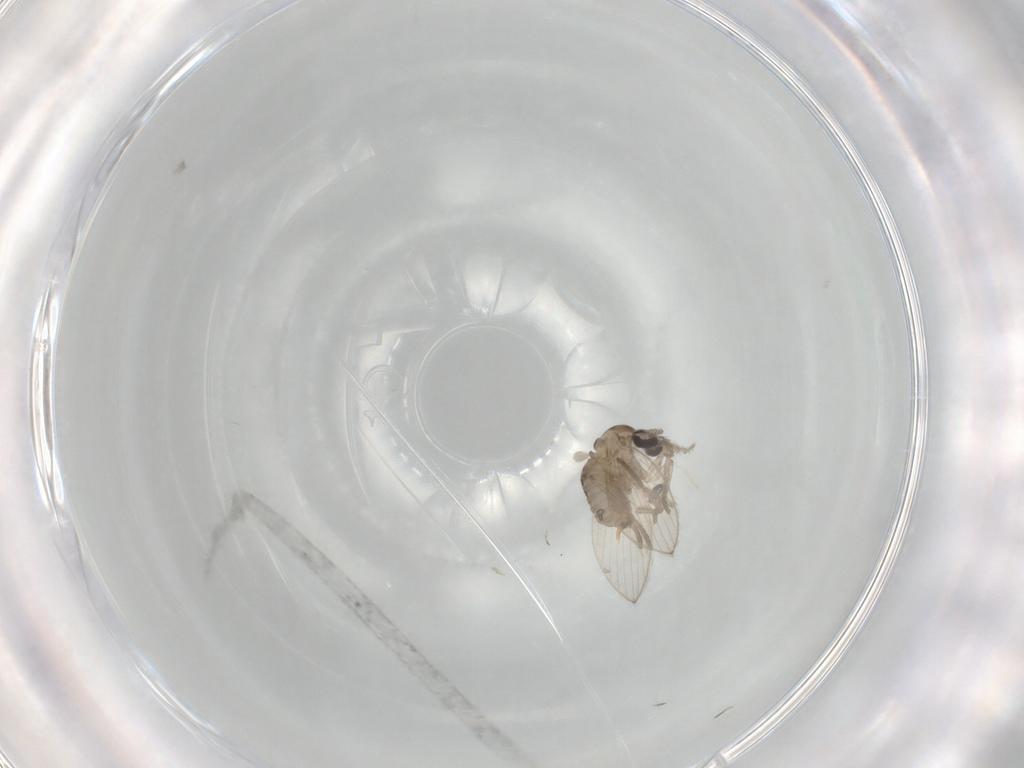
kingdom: Animalia
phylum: Arthropoda
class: Insecta
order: Diptera
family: Psychodidae
